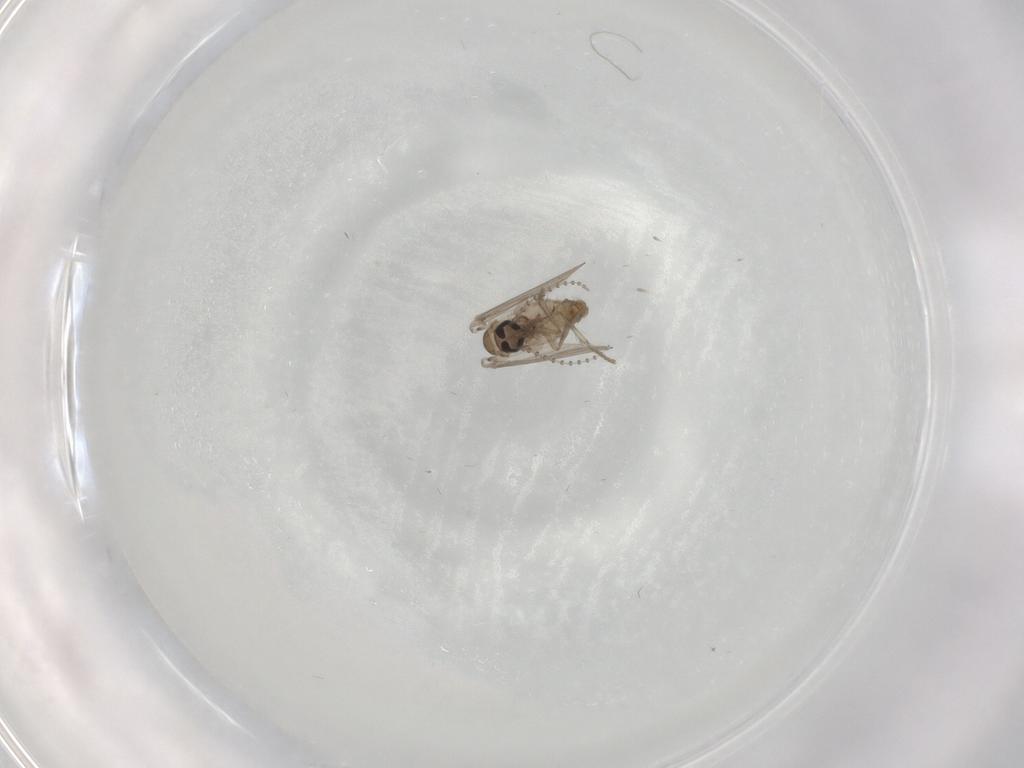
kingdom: Animalia
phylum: Arthropoda
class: Insecta
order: Diptera
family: Psychodidae
